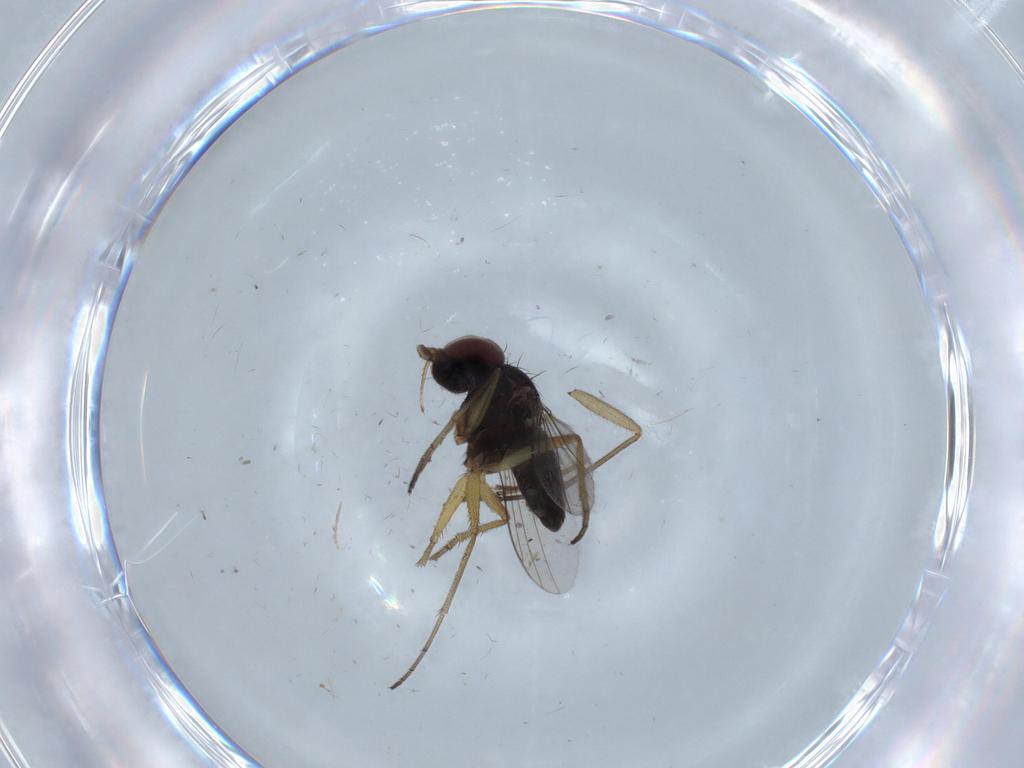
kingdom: Animalia
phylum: Arthropoda
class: Insecta
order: Diptera
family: Dolichopodidae
